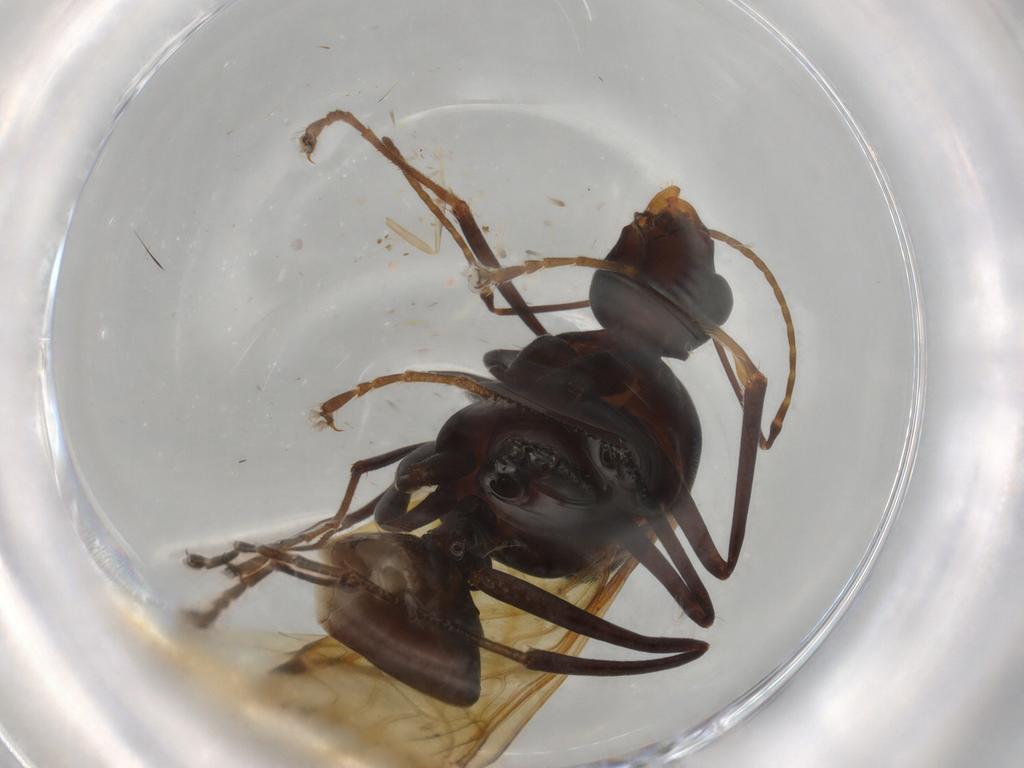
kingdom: Animalia
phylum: Arthropoda
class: Insecta
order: Hymenoptera
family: Formicidae
